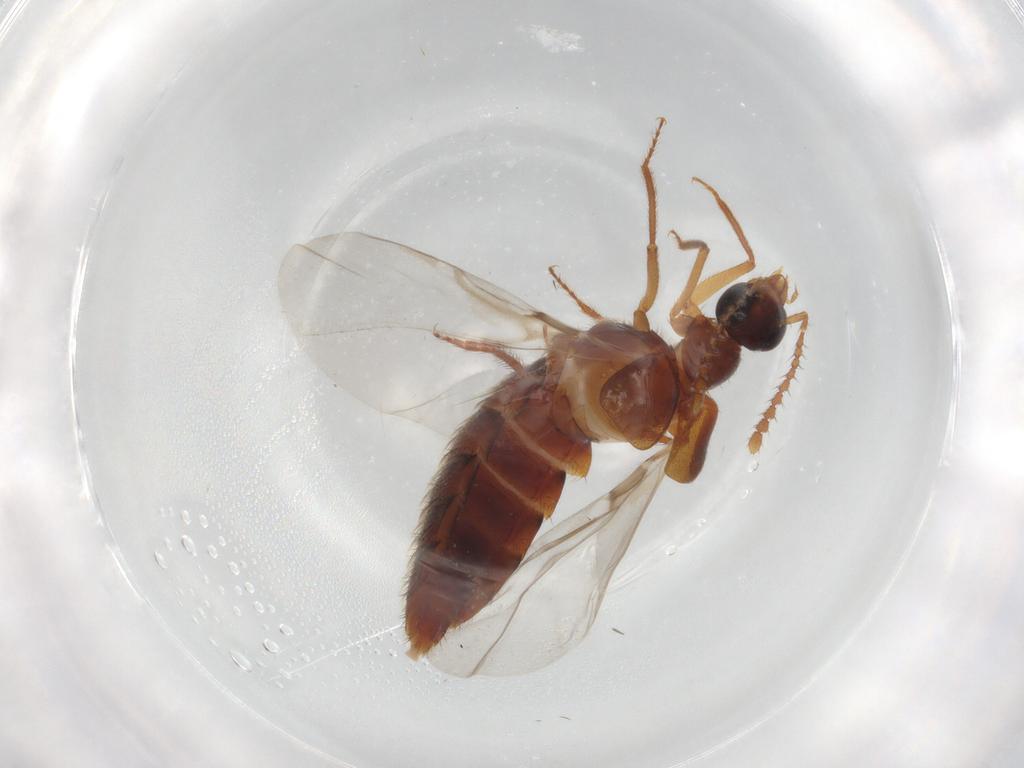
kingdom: Animalia
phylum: Arthropoda
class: Insecta
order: Coleoptera
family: Staphylinidae
